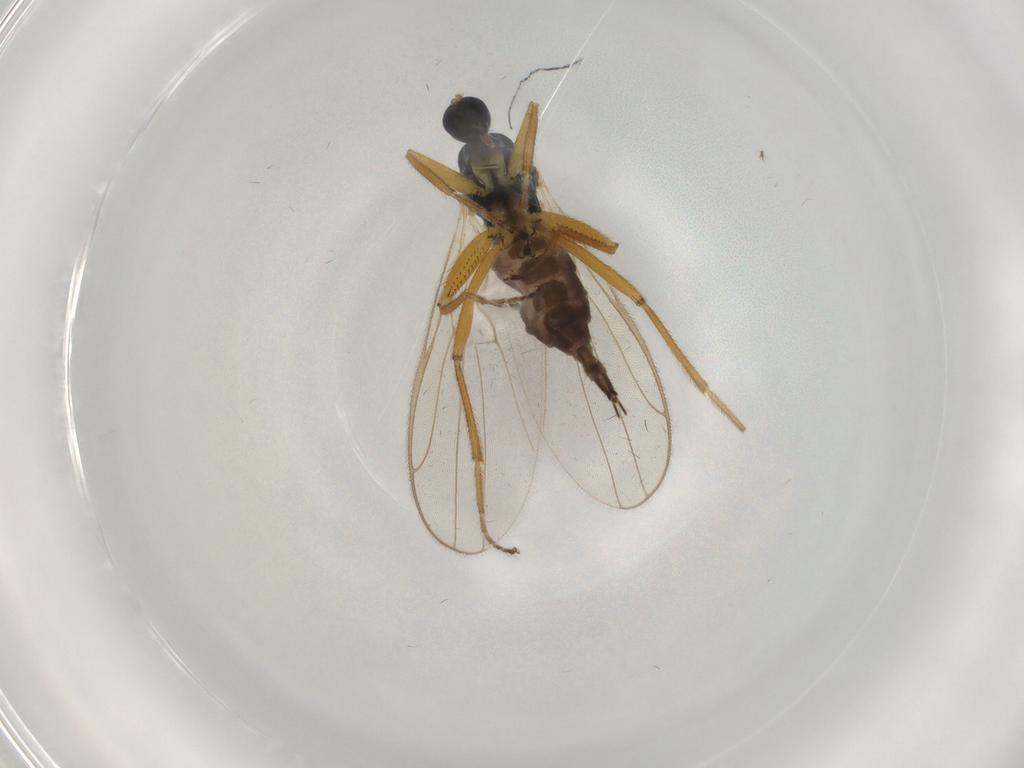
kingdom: Animalia
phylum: Arthropoda
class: Insecta
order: Diptera
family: Hybotidae
